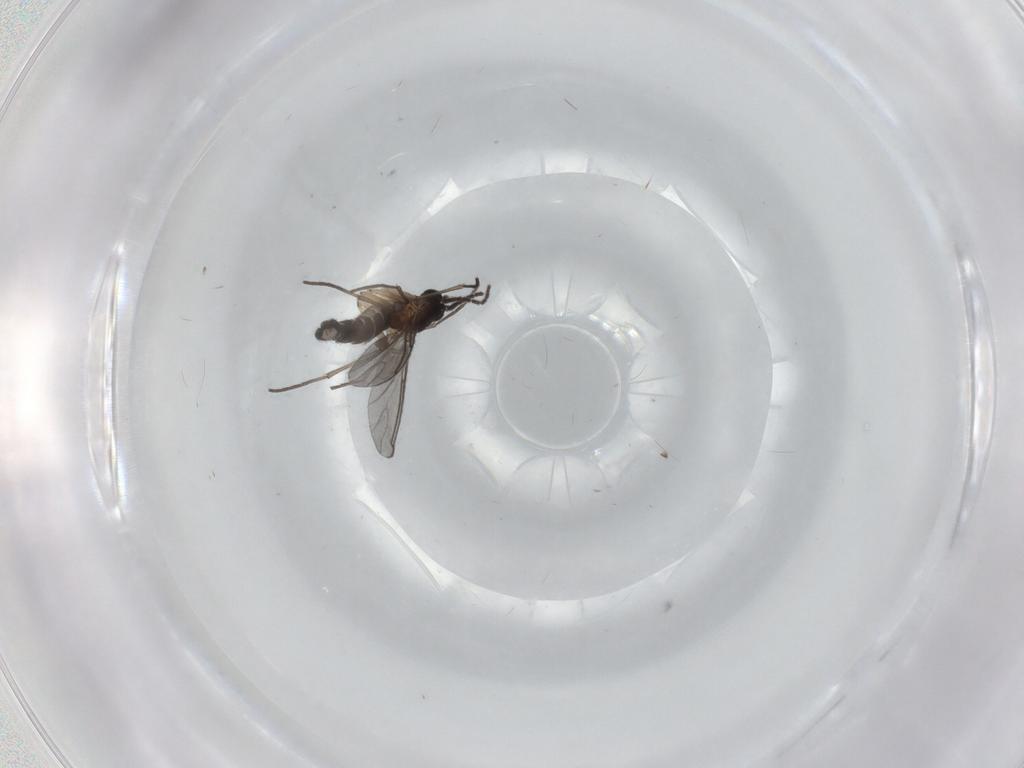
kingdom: Animalia
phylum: Arthropoda
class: Insecta
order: Diptera
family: Sciaridae
